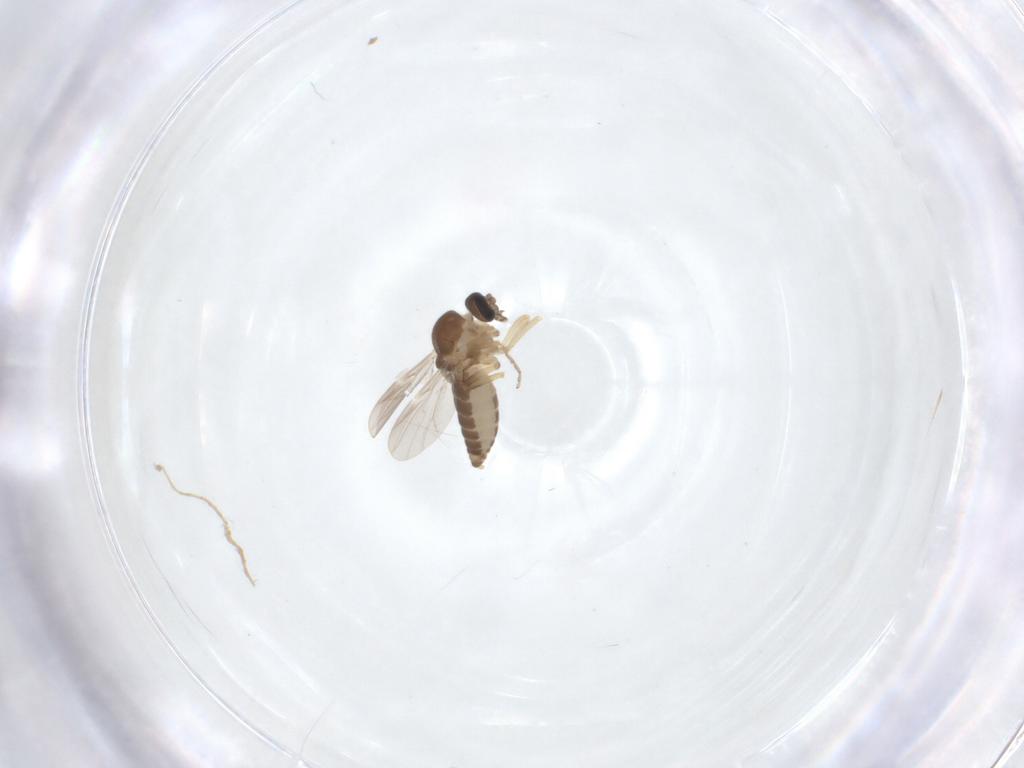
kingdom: Animalia
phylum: Arthropoda
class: Insecta
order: Diptera
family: Ceratopogonidae
